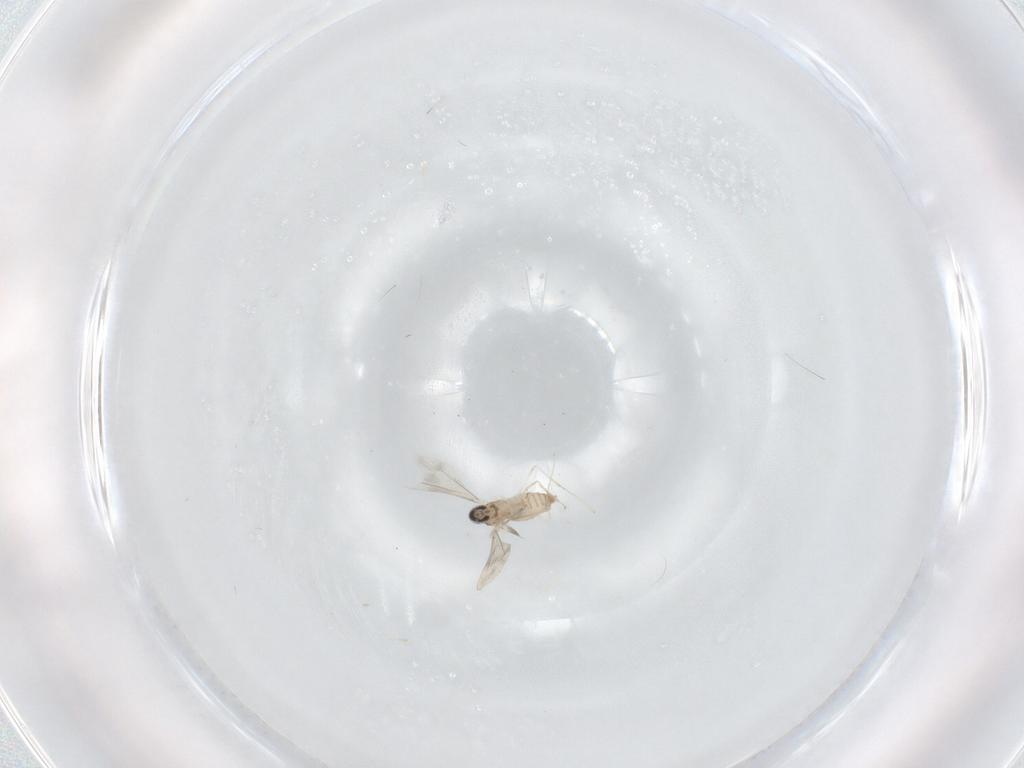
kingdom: Animalia
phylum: Arthropoda
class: Insecta
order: Diptera
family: Cecidomyiidae
